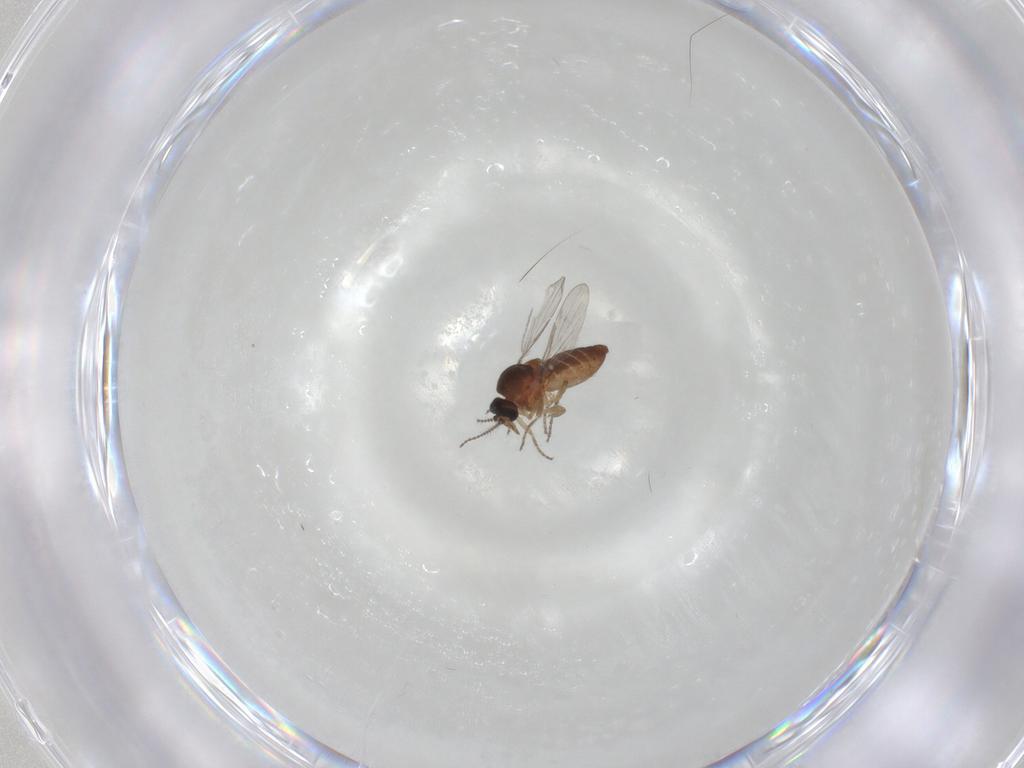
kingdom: Animalia
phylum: Arthropoda
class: Insecta
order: Diptera
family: Ceratopogonidae
